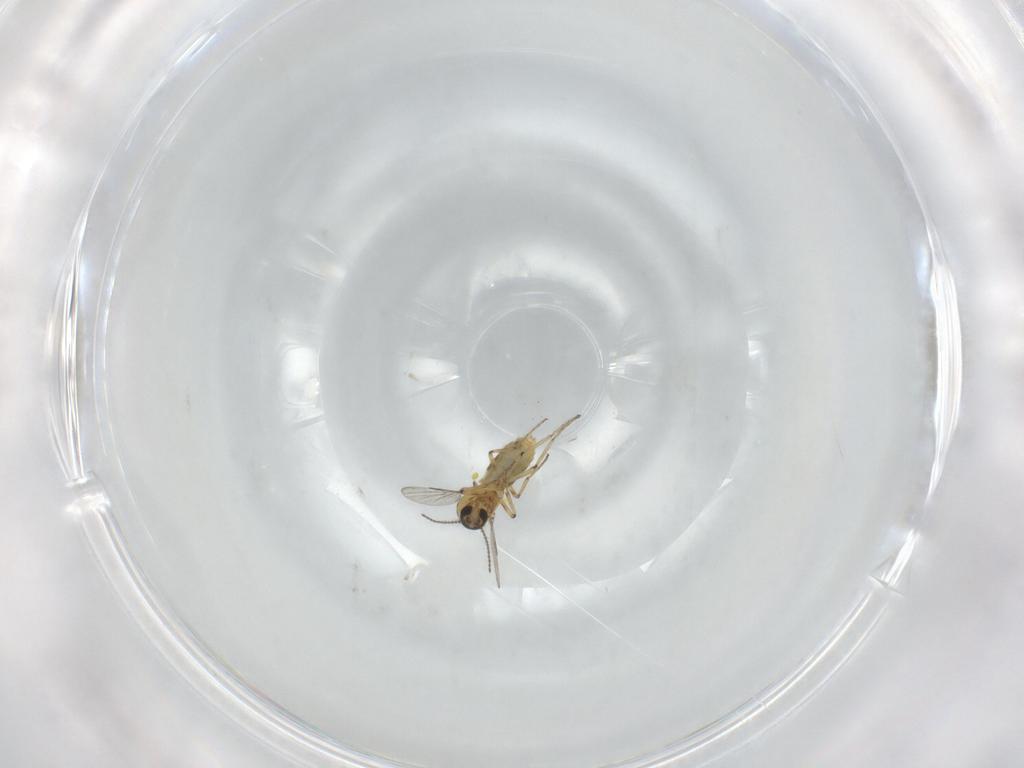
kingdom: Animalia
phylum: Arthropoda
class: Insecta
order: Diptera
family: Ceratopogonidae
